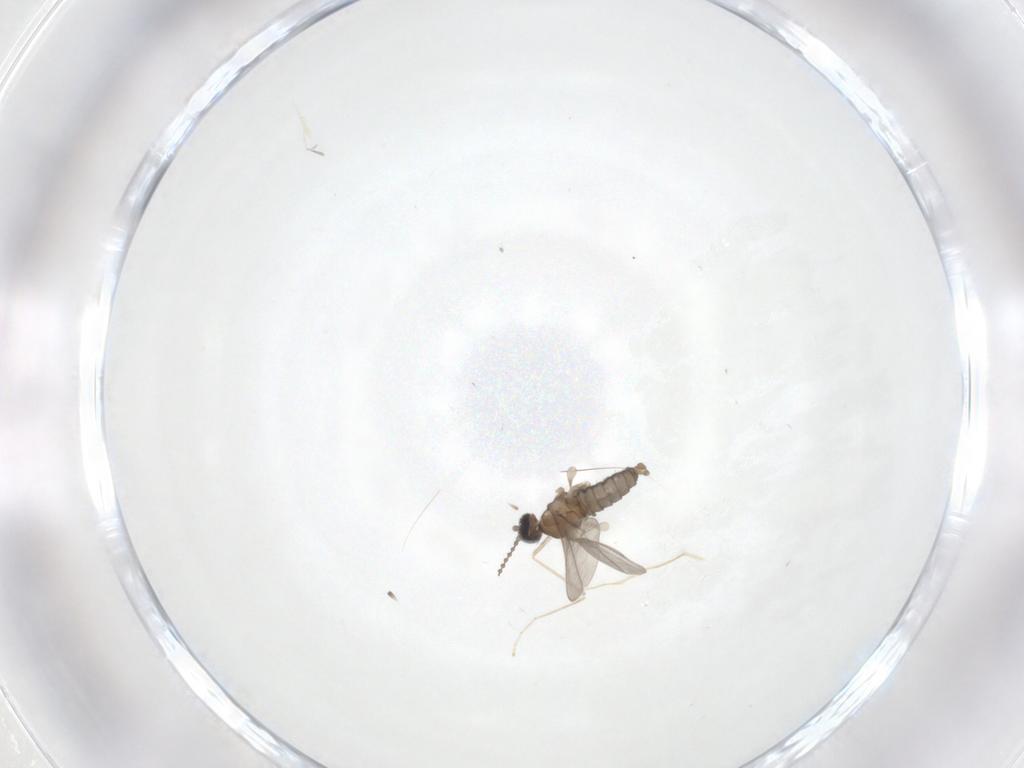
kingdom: Animalia
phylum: Arthropoda
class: Insecta
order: Diptera
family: Cecidomyiidae
